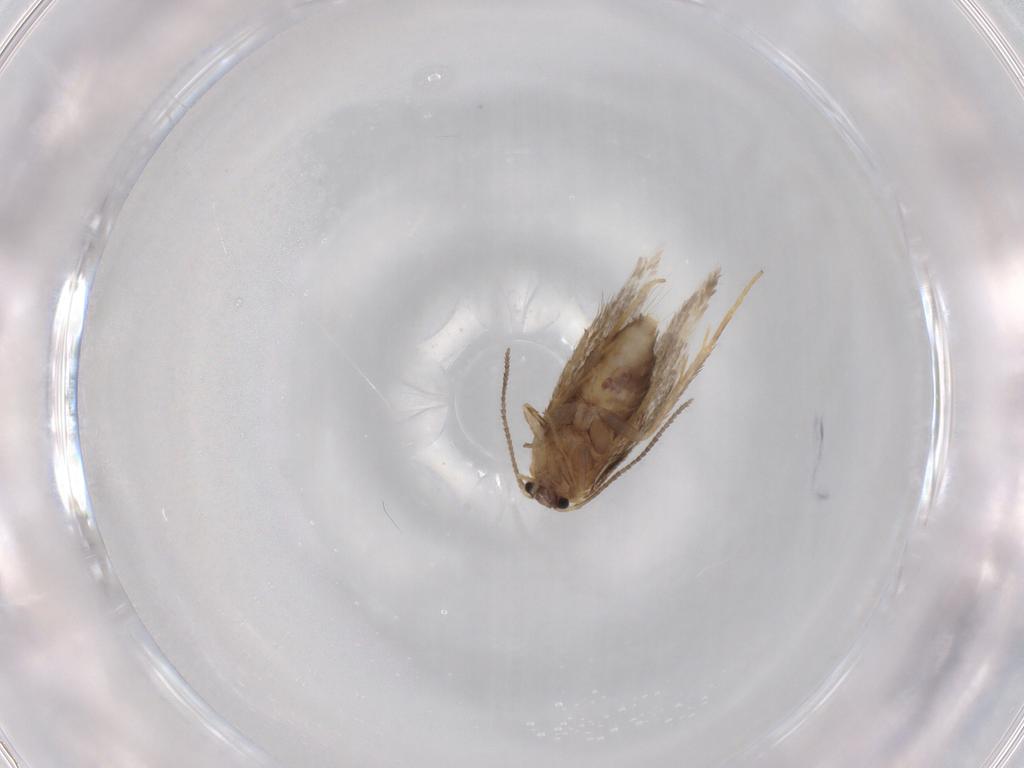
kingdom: Animalia
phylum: Arthropoda
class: Insecta
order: Lepidoptera
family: Nepticulidae
